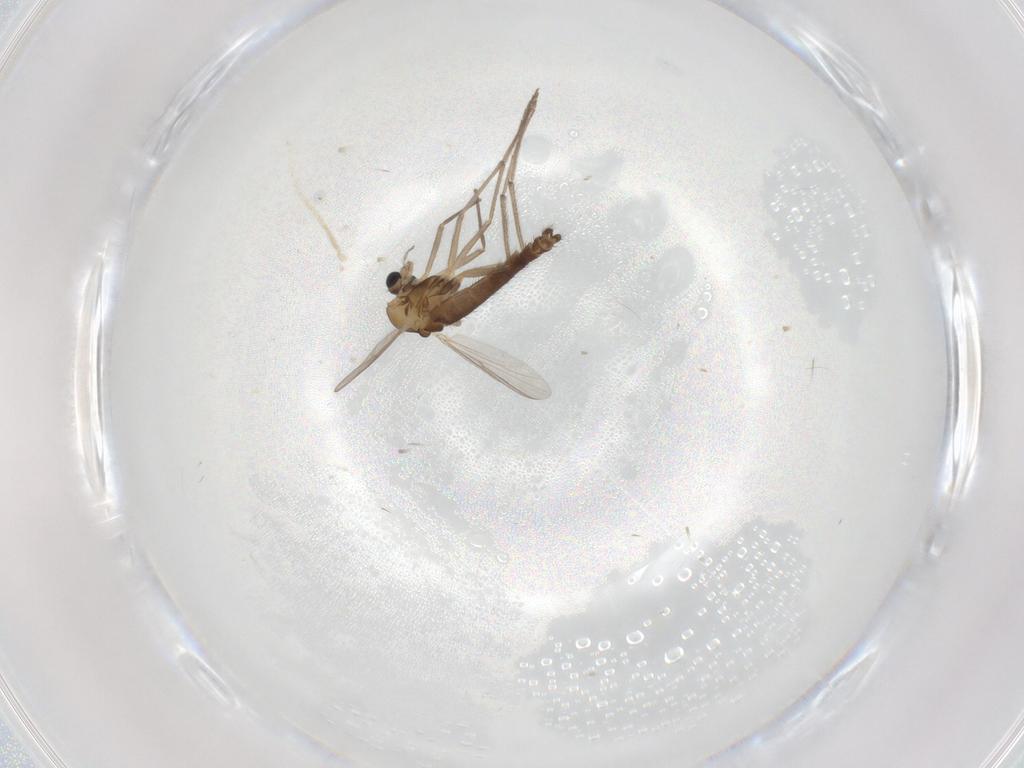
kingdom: Animalia
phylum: Arthropoda
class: Insecta
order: Diptera
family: Chironomidae
